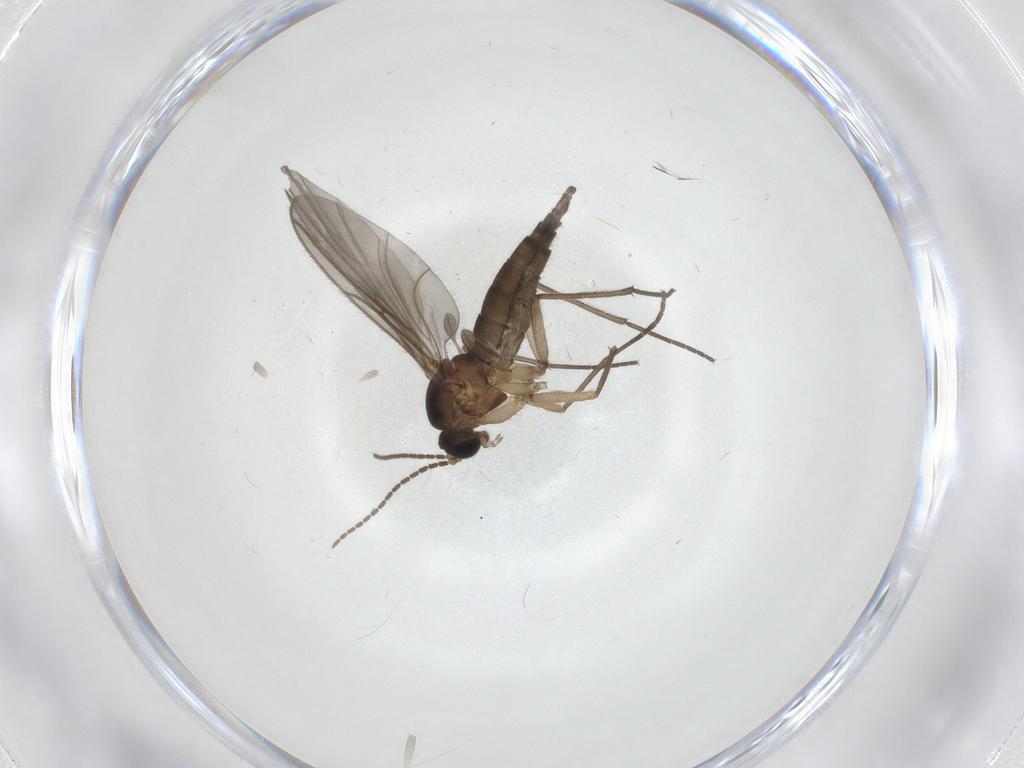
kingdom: Animalia
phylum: Arthropoda
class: Insecta
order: Diptera
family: Cecidomyiidae
